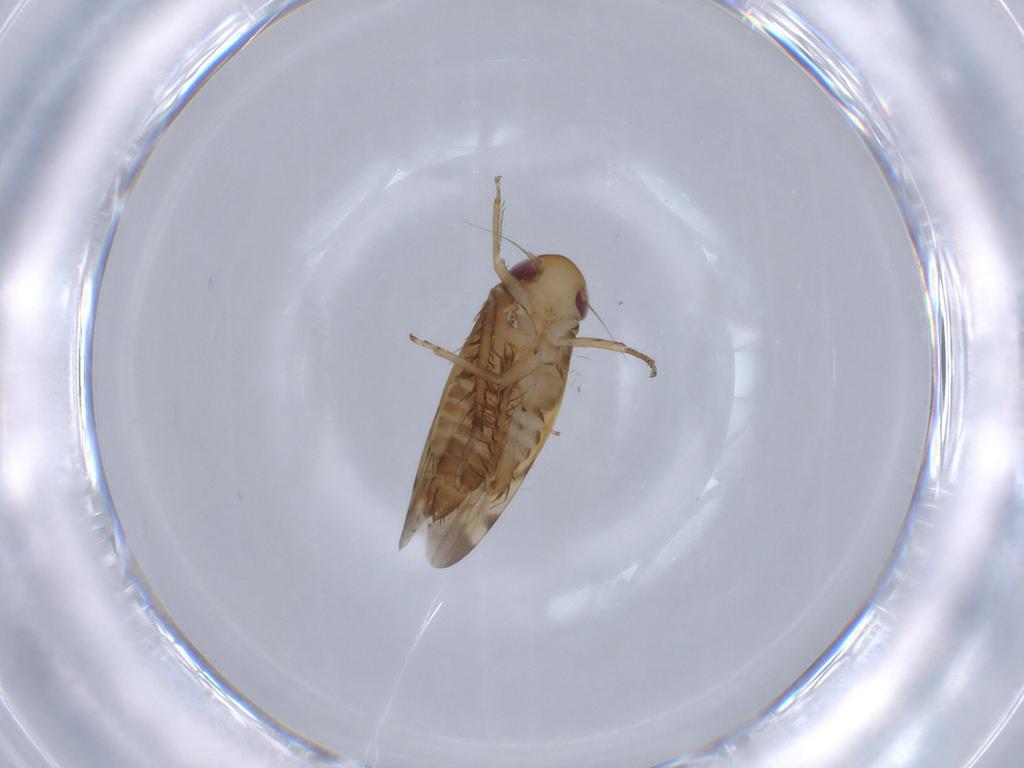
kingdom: Animalia
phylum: Arthropoda
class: Insecta
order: Hemiptera
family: Cicadellidae
